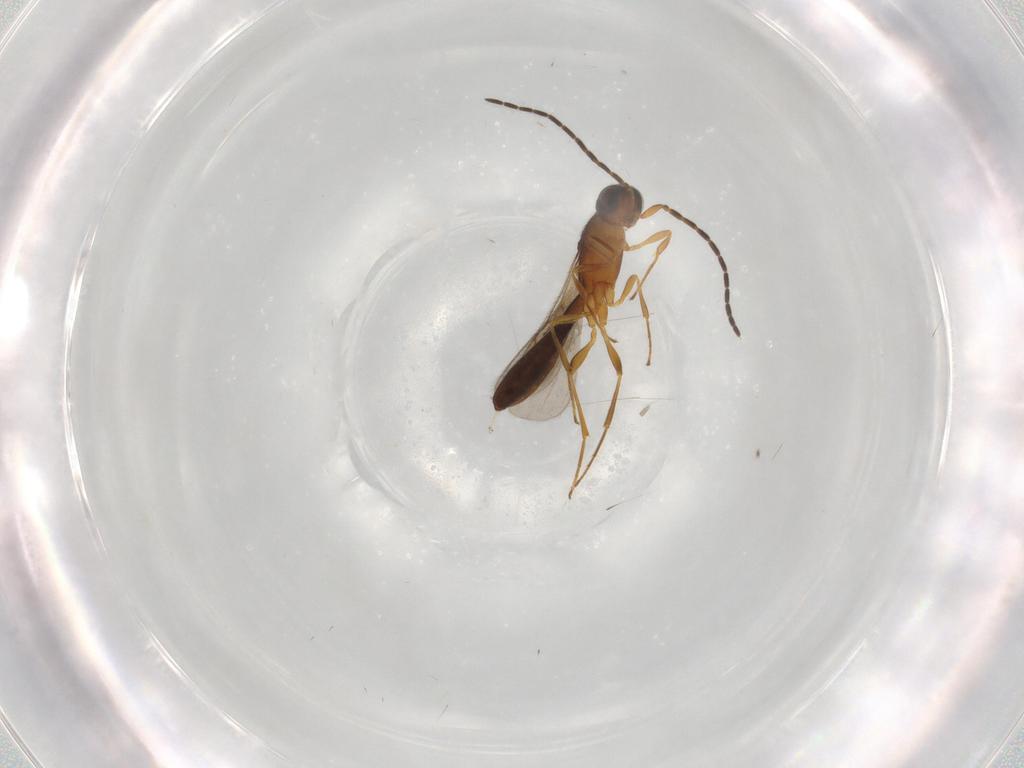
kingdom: Animalia
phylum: Arthropoda
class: Insecta
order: Hymenoptera
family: Scelionidae
